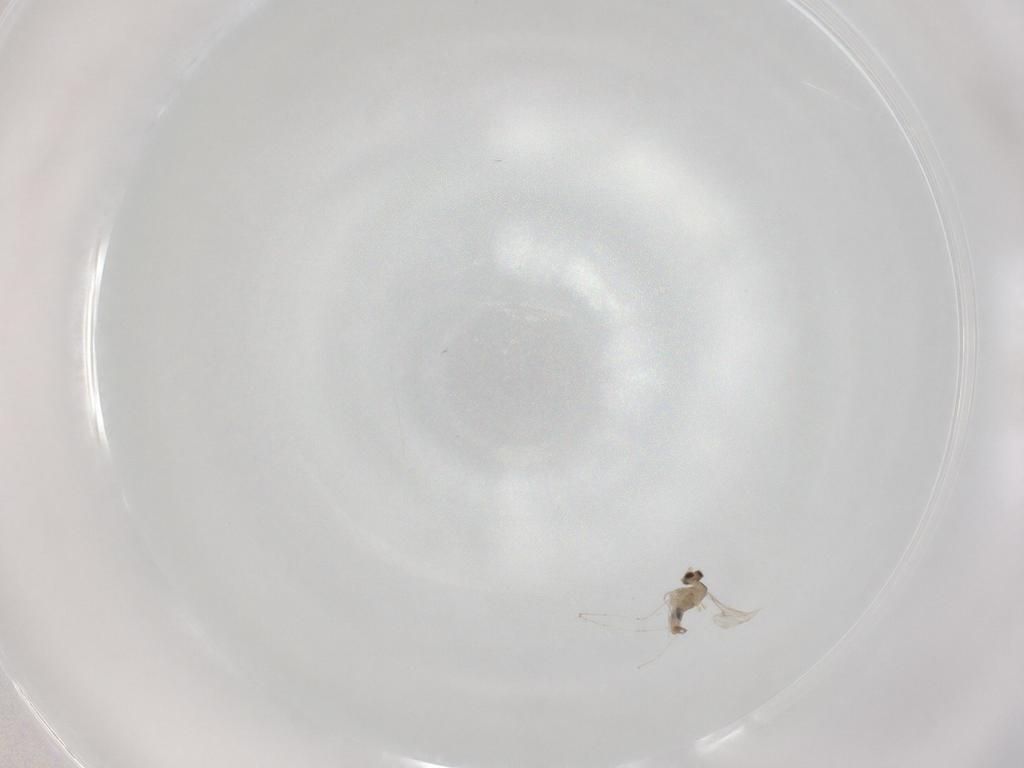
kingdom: Animalia
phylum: Arthropoda
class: Insecta
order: Diptera
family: Cecidomyiidae
